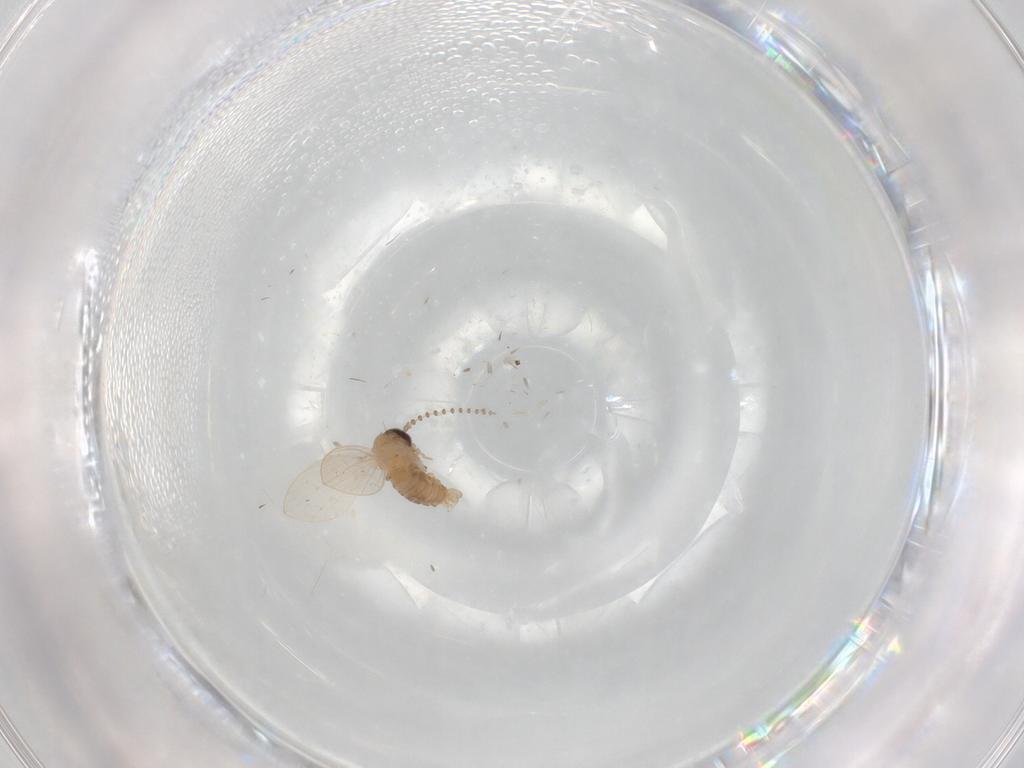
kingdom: Animalia
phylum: Arthropoda
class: Insecta
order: Diptera
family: Psychodidae
